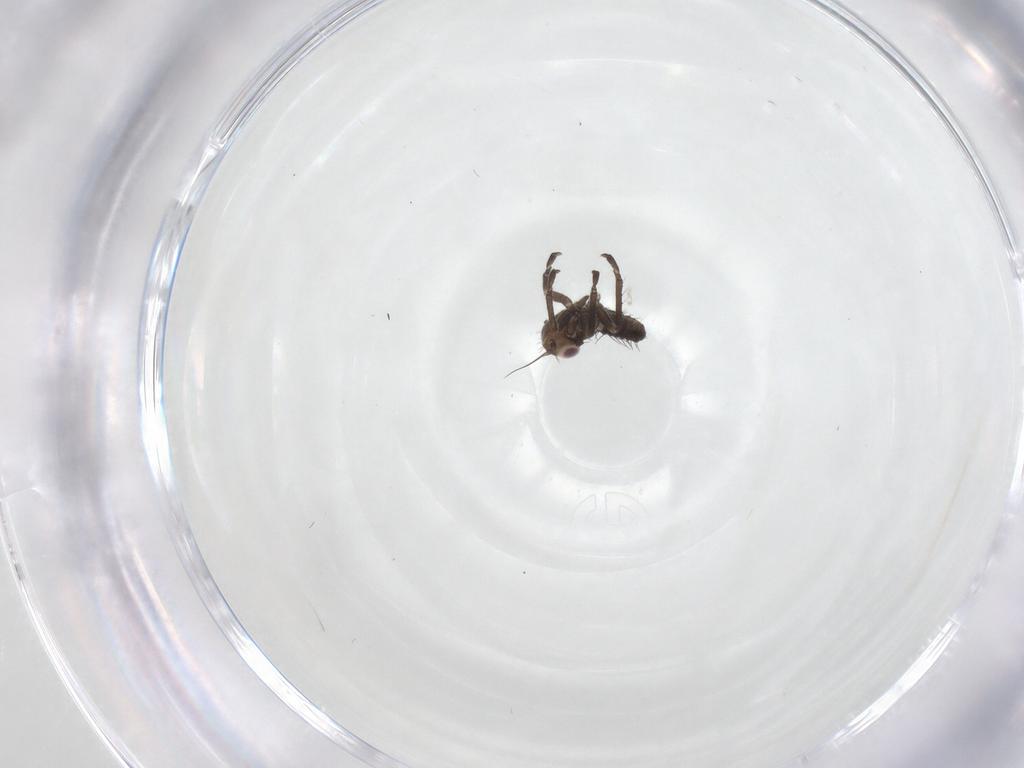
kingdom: Animalia
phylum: Arthropoda
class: Insecta
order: Hemiptera
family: Cicadellidae
